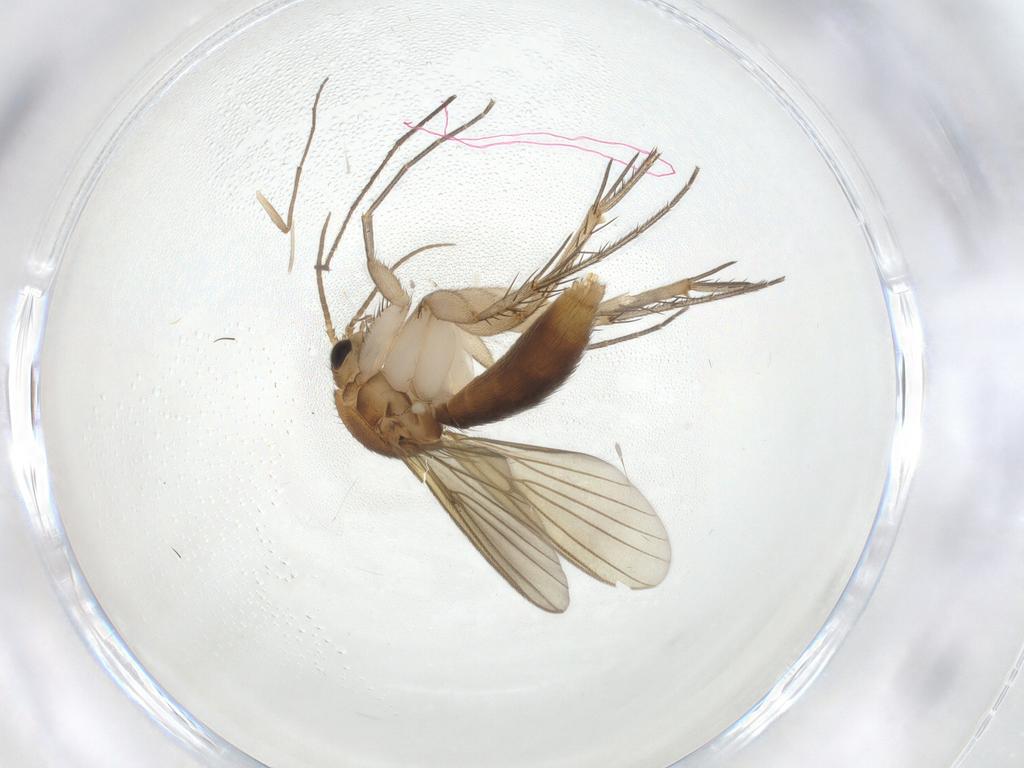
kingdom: Animalia
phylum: Arthropoda
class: Insecta
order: Diptera
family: Mycetophilidae
